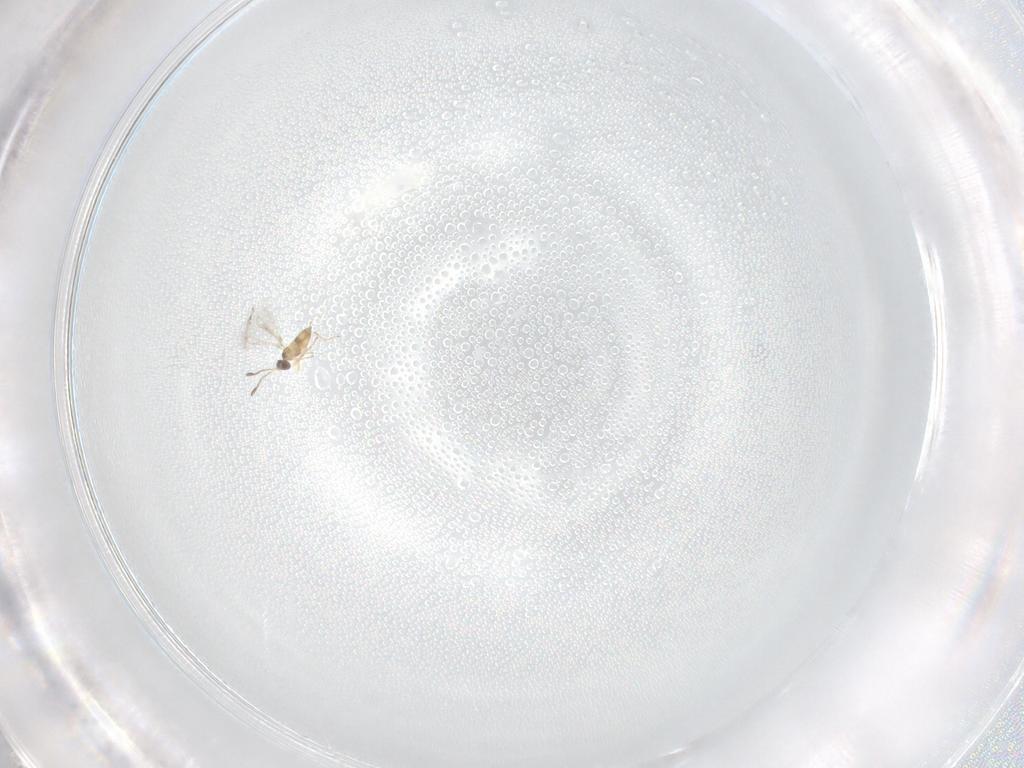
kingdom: Animalia
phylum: Arthropoda
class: Insecta
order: Hymenoptera
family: Mymaridae
